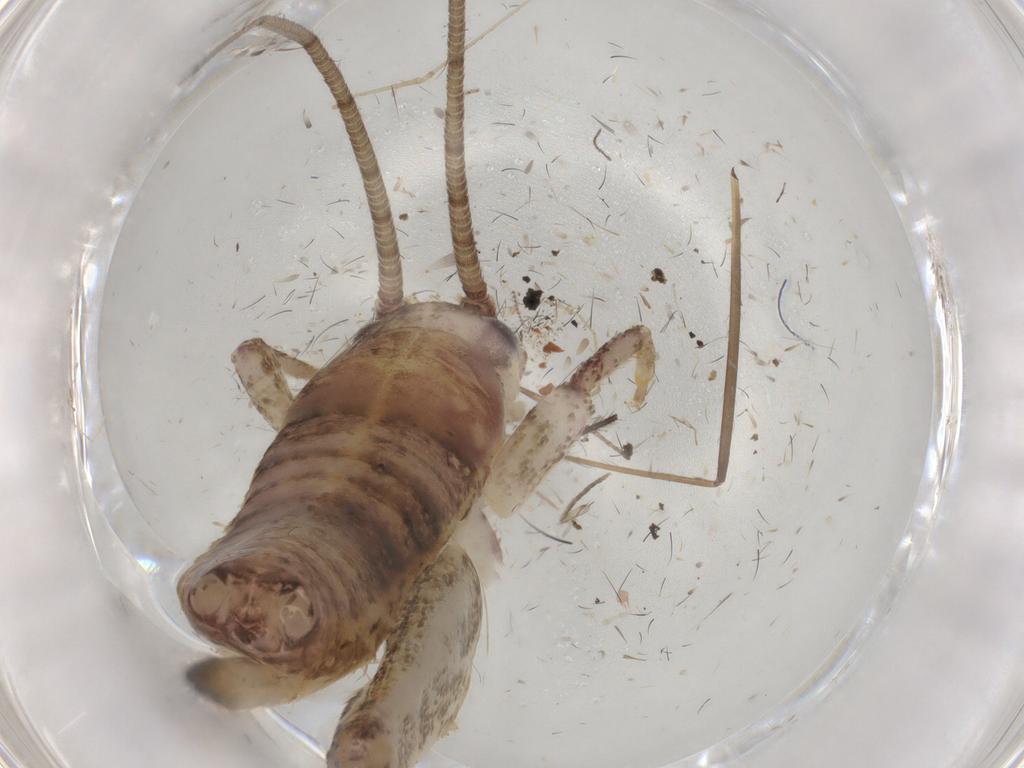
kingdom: Animalia
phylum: Arthropoda
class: Insecta
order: Orthoptera
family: Mogoplistidae
